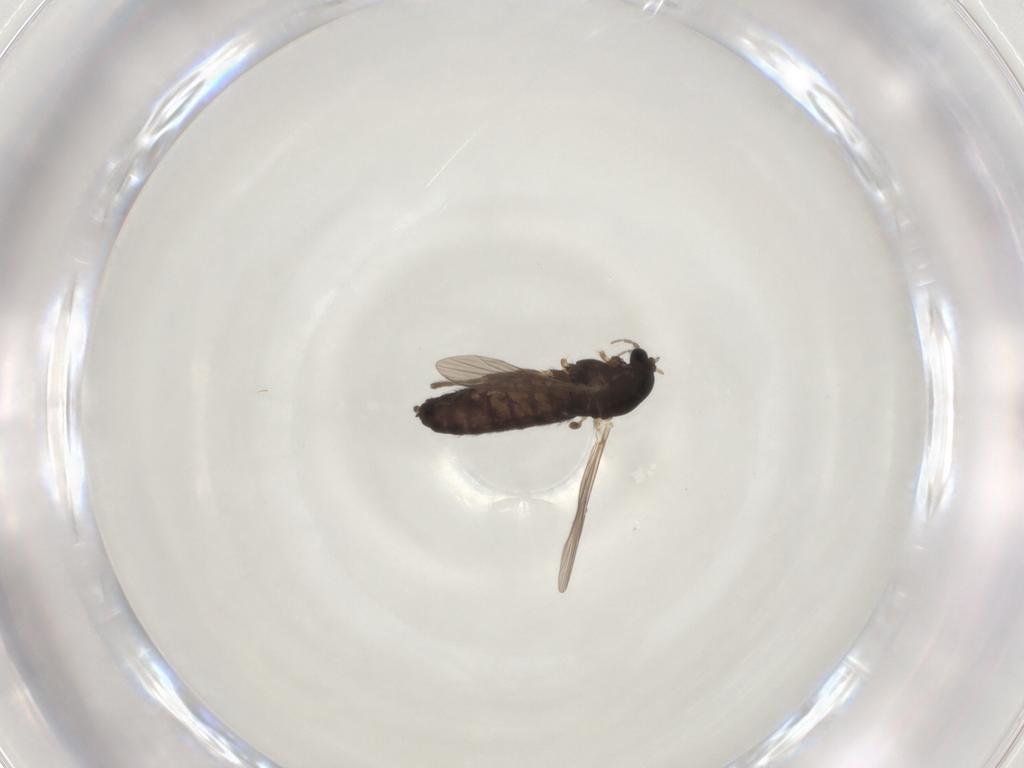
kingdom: Animalia
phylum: Arthropoda
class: Insecta
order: Diptera
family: Chironomidae
